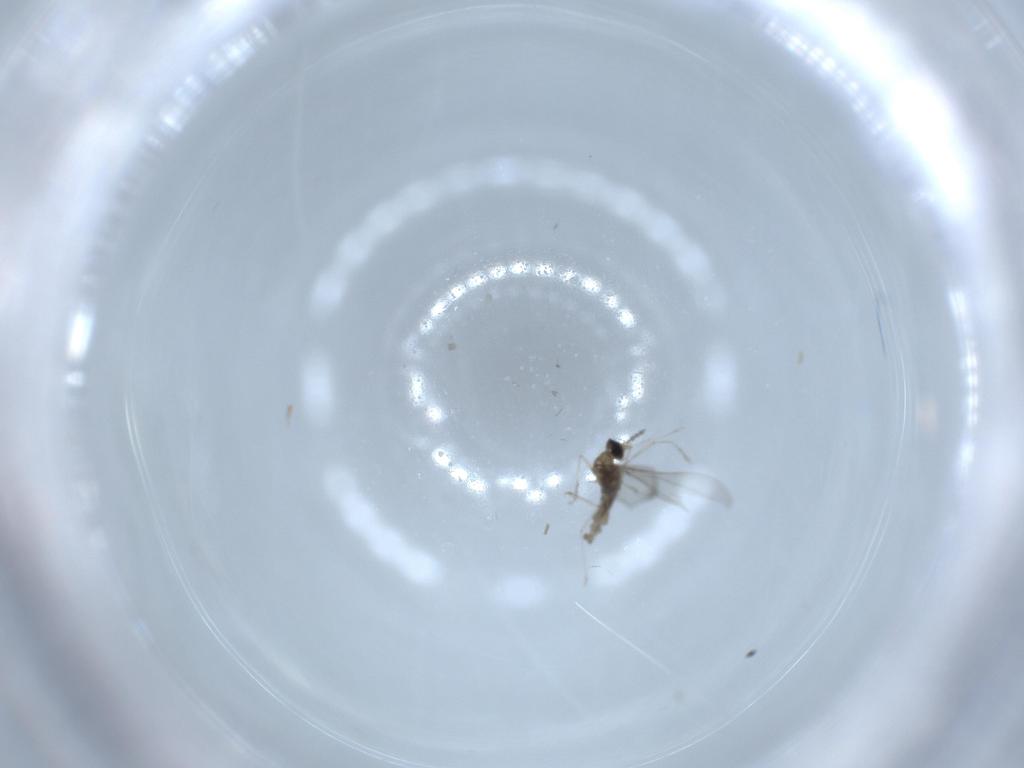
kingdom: Animalia
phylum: Arthropoda
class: Insecta
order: Diptera
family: Cecidomyiidae
